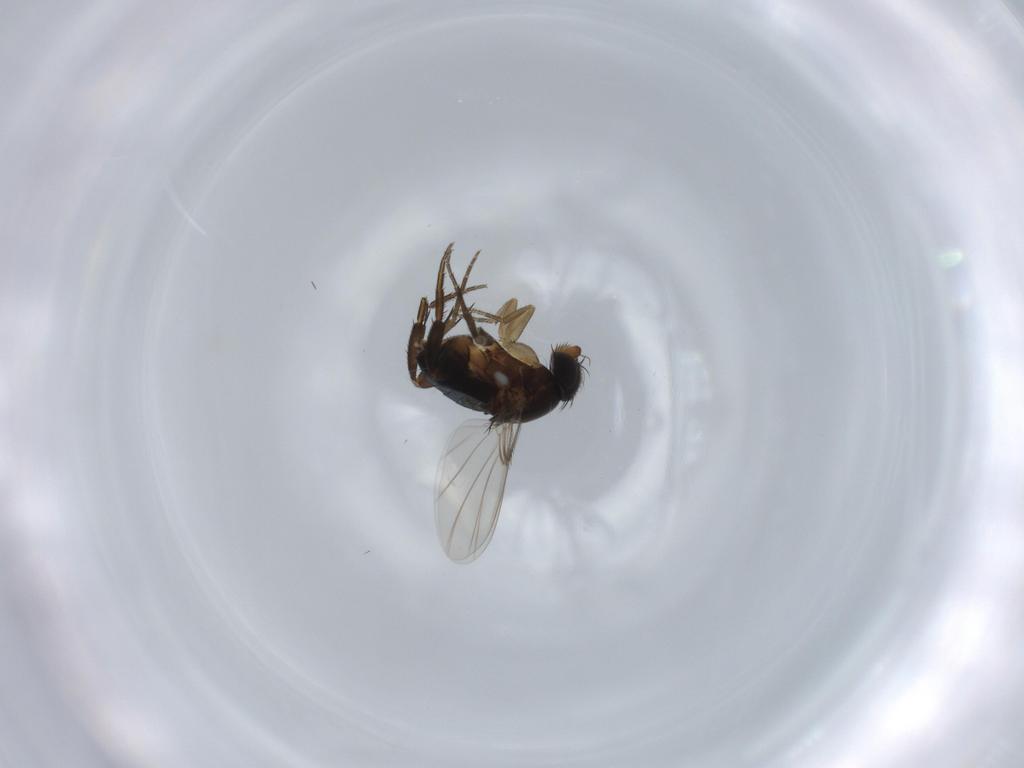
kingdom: Animalia
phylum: Arthropoda
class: Insecta
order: Diptera
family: Phoridae
